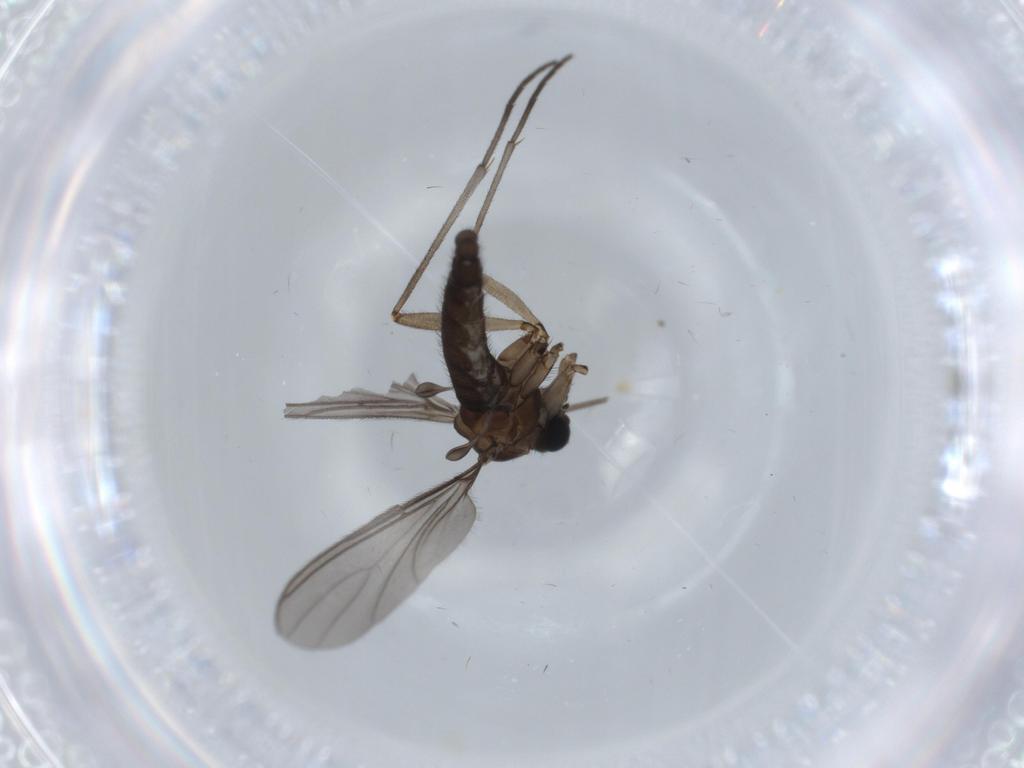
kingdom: Animalia
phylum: Arthropoda
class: Insecta
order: Diptera
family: Sciaridae
